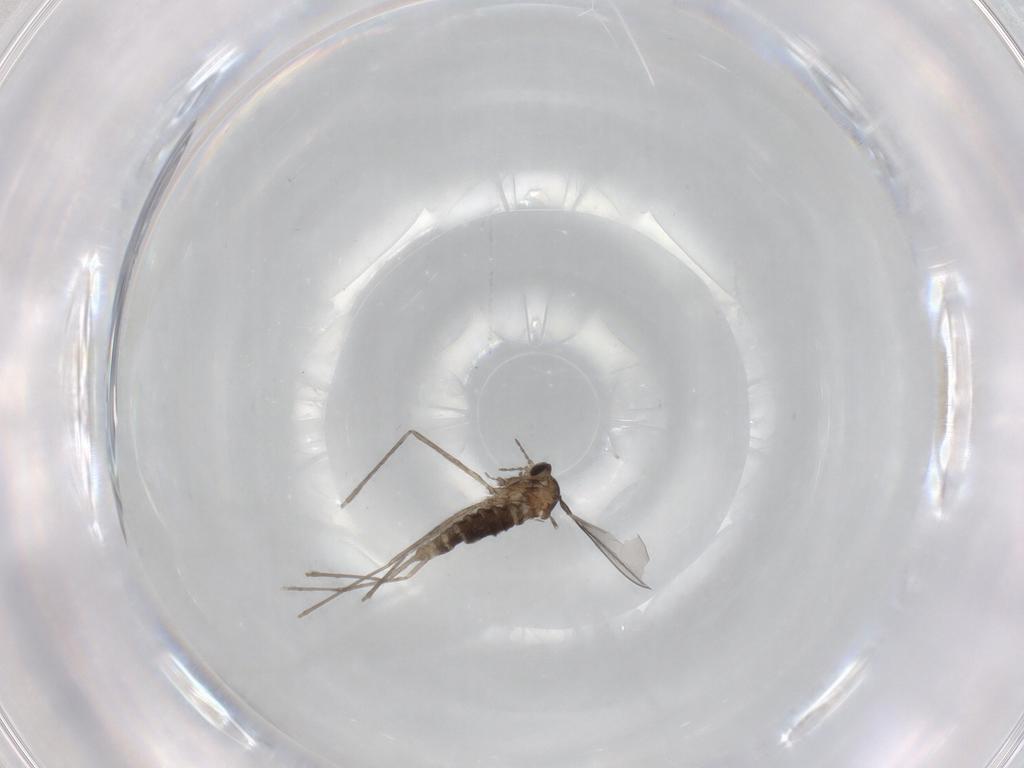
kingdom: Animalia
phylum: Arthropoda
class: Insecta
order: Diptera
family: Cecidomyiidae
